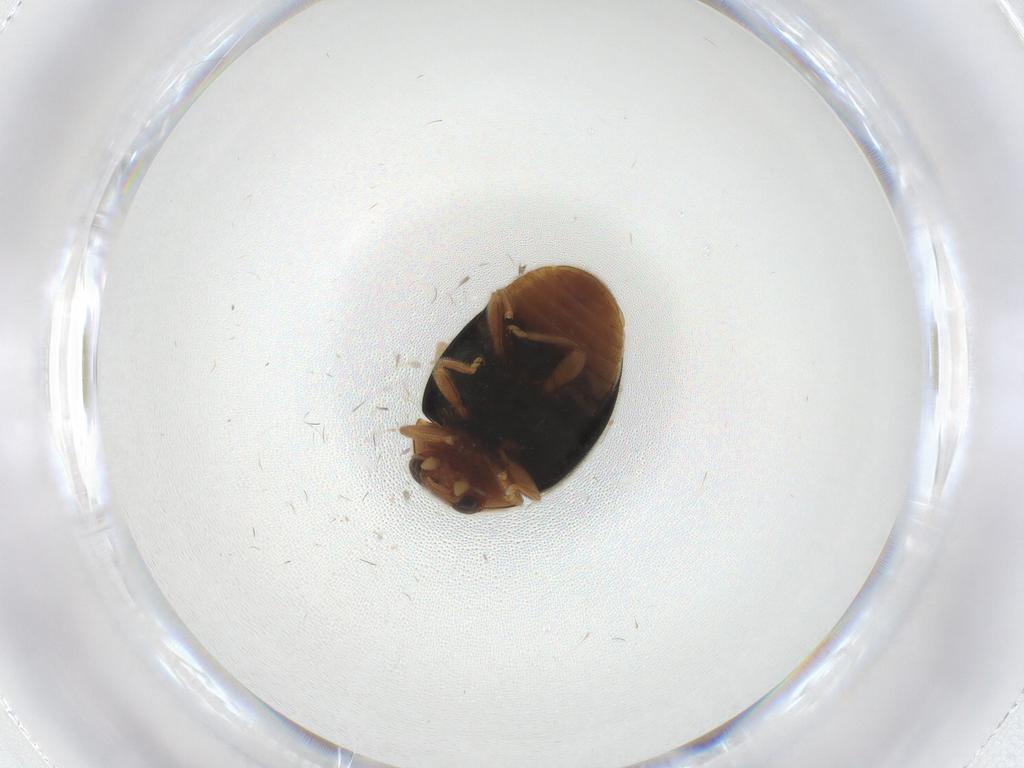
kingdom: Animalia
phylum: Arthropoda
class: Insecta
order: Coleoptera
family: Coccinellidae
